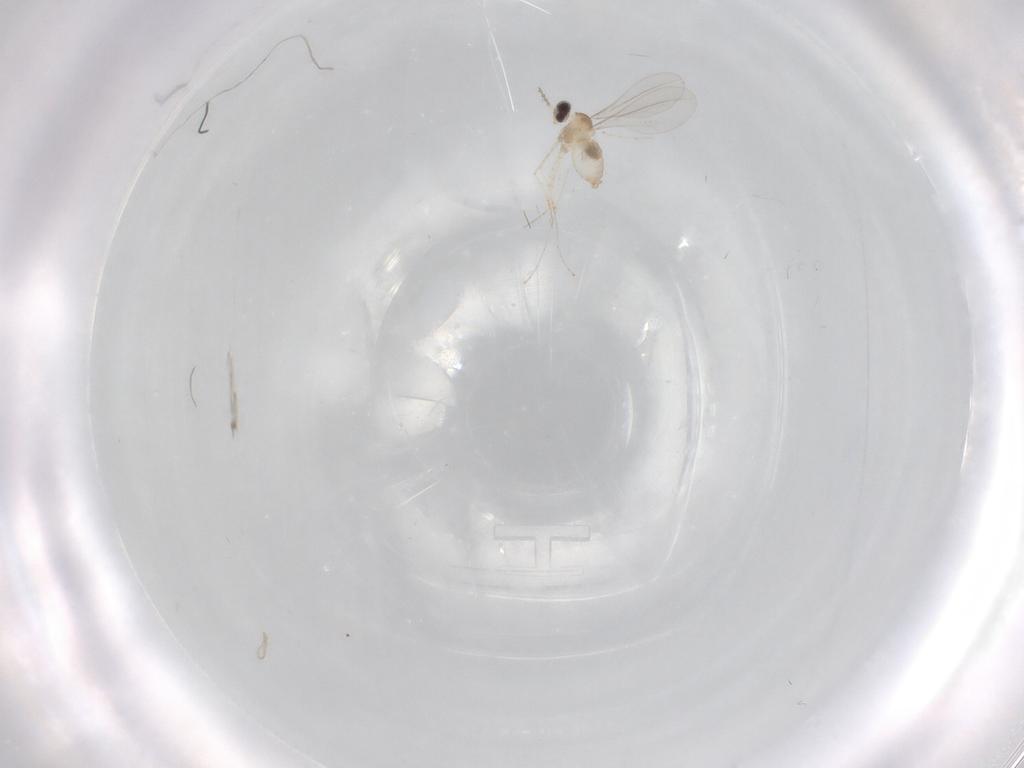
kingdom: Animalia
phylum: Arthropoda
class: Insecta
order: Diptera
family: Cecidomyiidae
